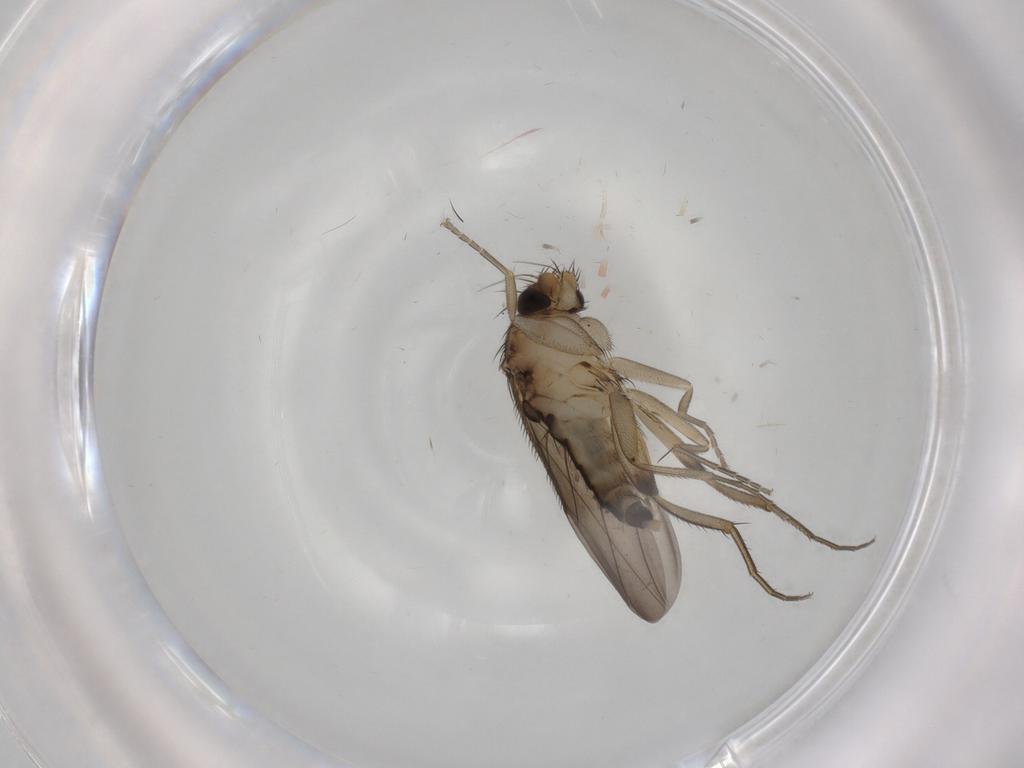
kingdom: Animalia
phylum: Arthropoda
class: Insecta
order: Diptera
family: Phoridae
